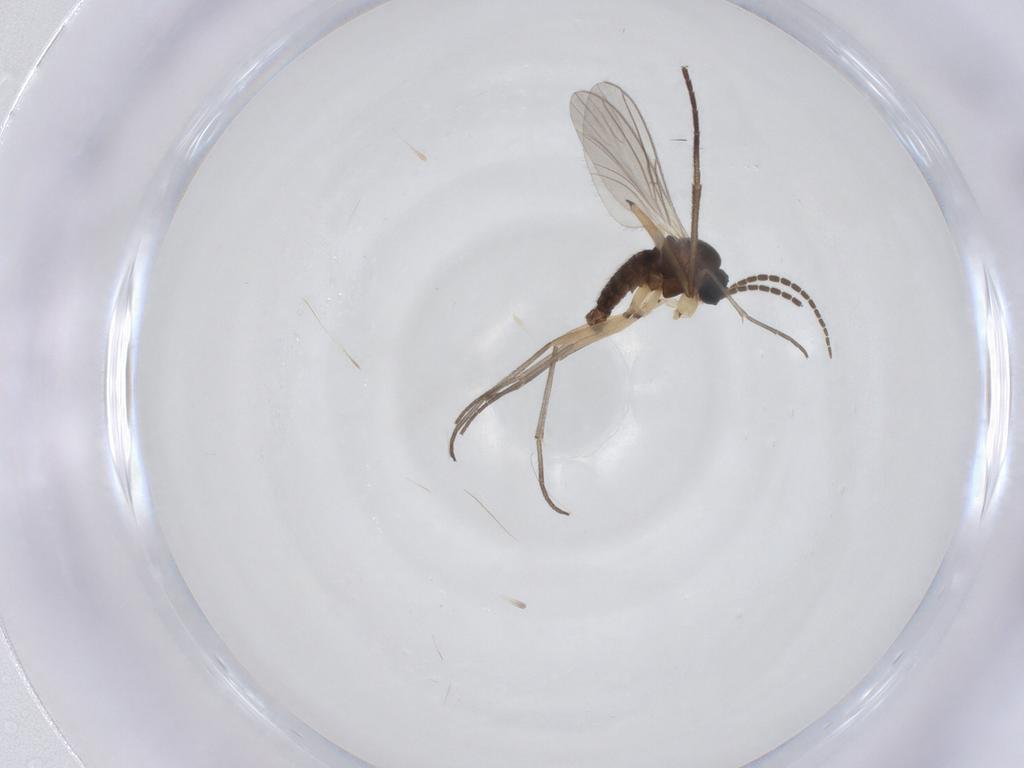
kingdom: Animalia
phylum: Arthropoda
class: Insecta
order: Diptera
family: Sciaridae
